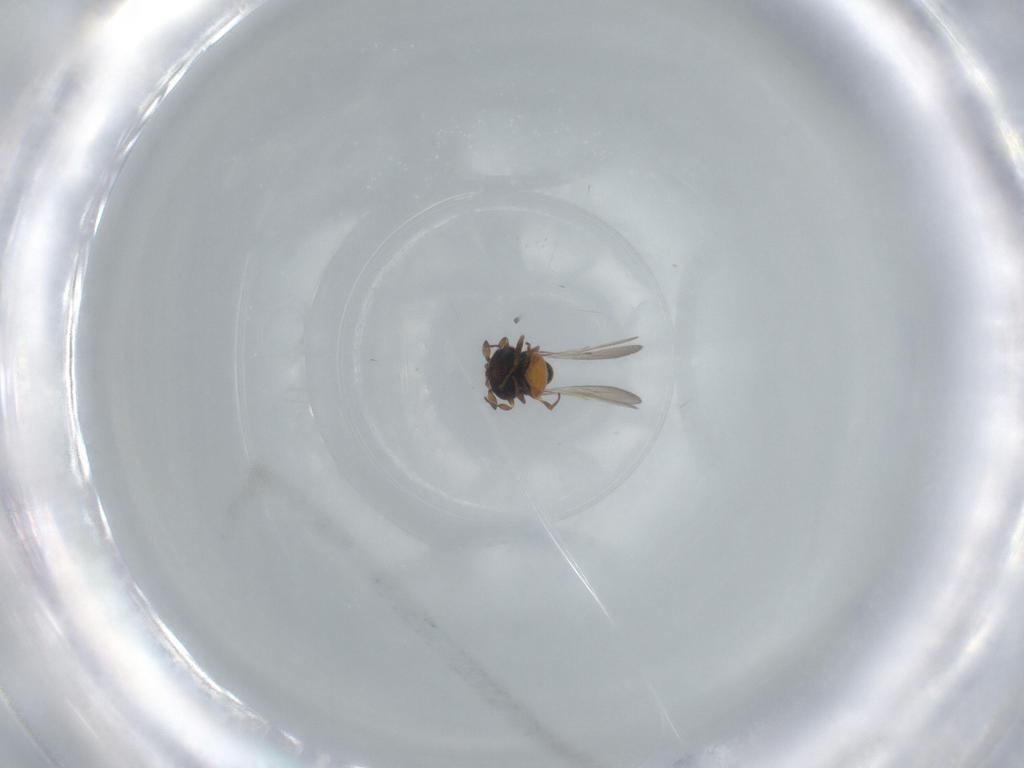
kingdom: Animalia
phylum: Arthropoda
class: Insecta
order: Hymenoptera
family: Scelionidae
